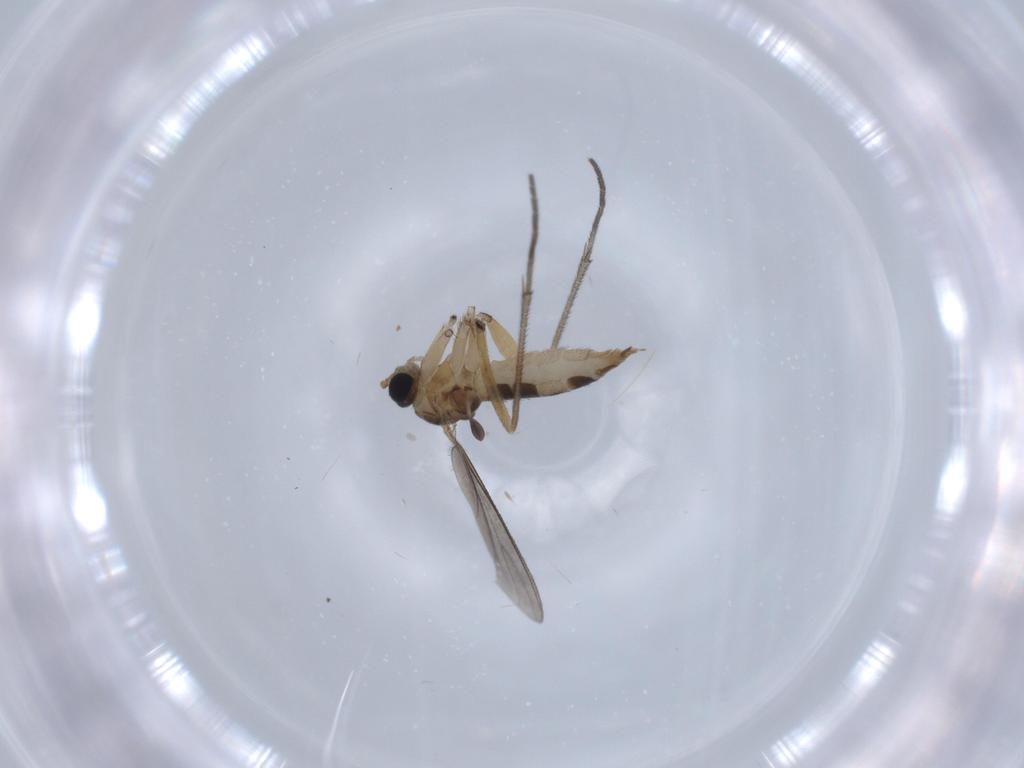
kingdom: Animalia
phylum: Arthropoda
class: Insecta
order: Diptera
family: Sciaridae
